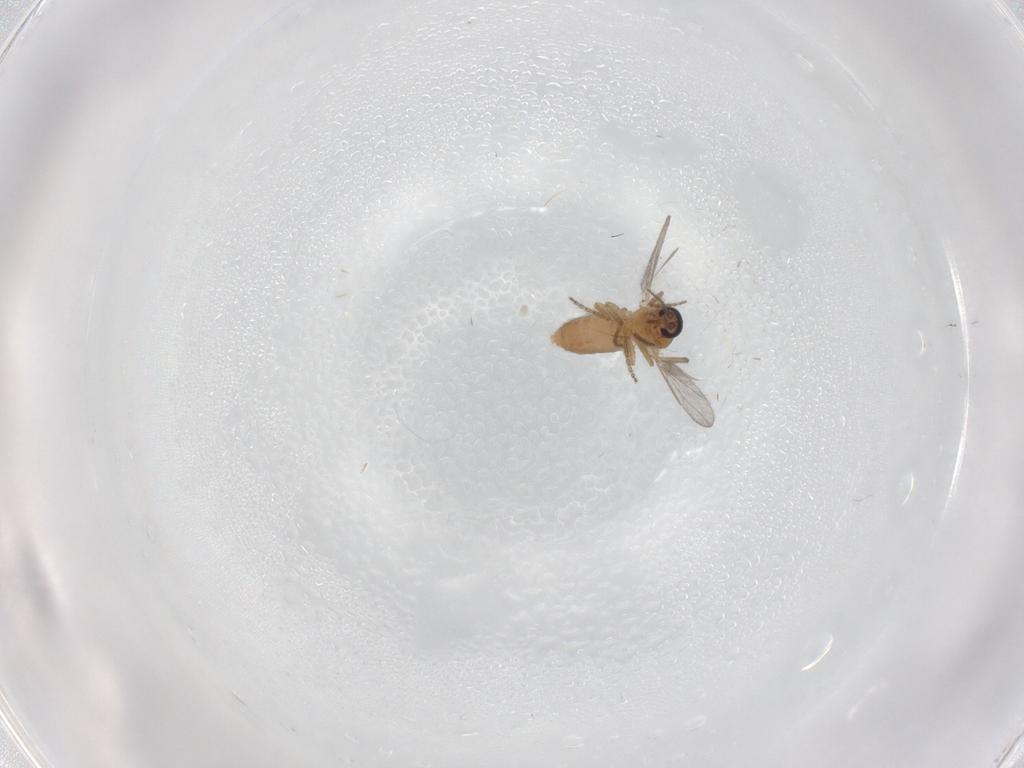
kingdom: Animalia
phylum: Arthropoda
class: Insecta
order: Diptera
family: Ceratopogonidae
